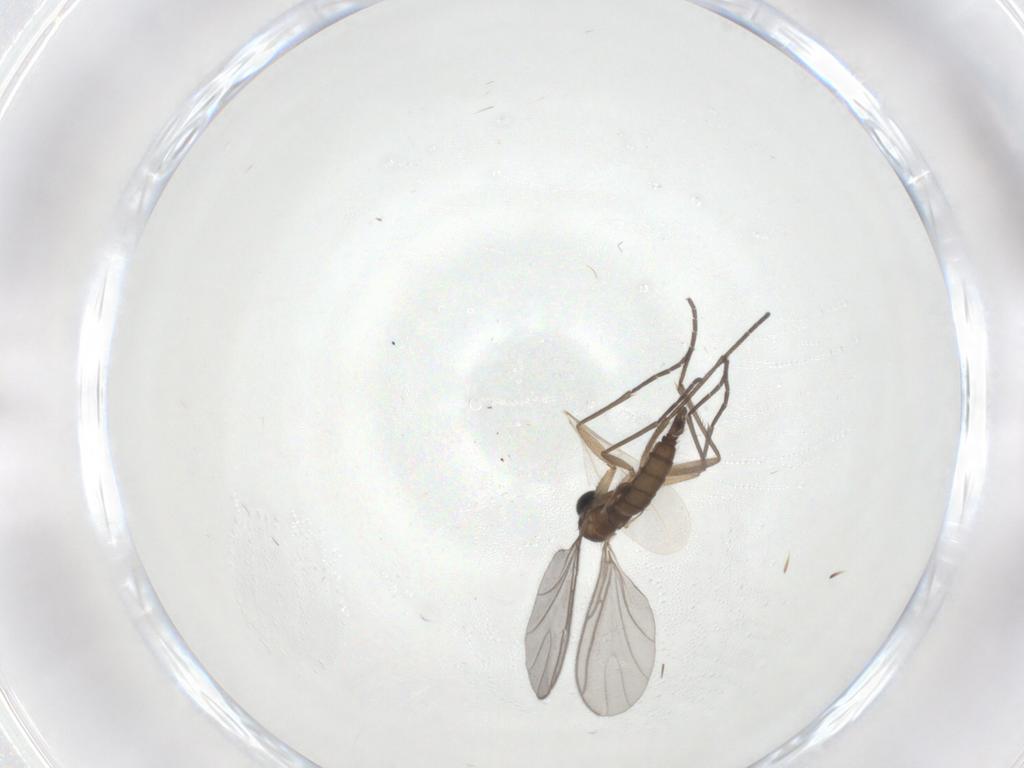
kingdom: Animalia
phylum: Arthropoda
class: Insecta
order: Diptera
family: Sciaridae
